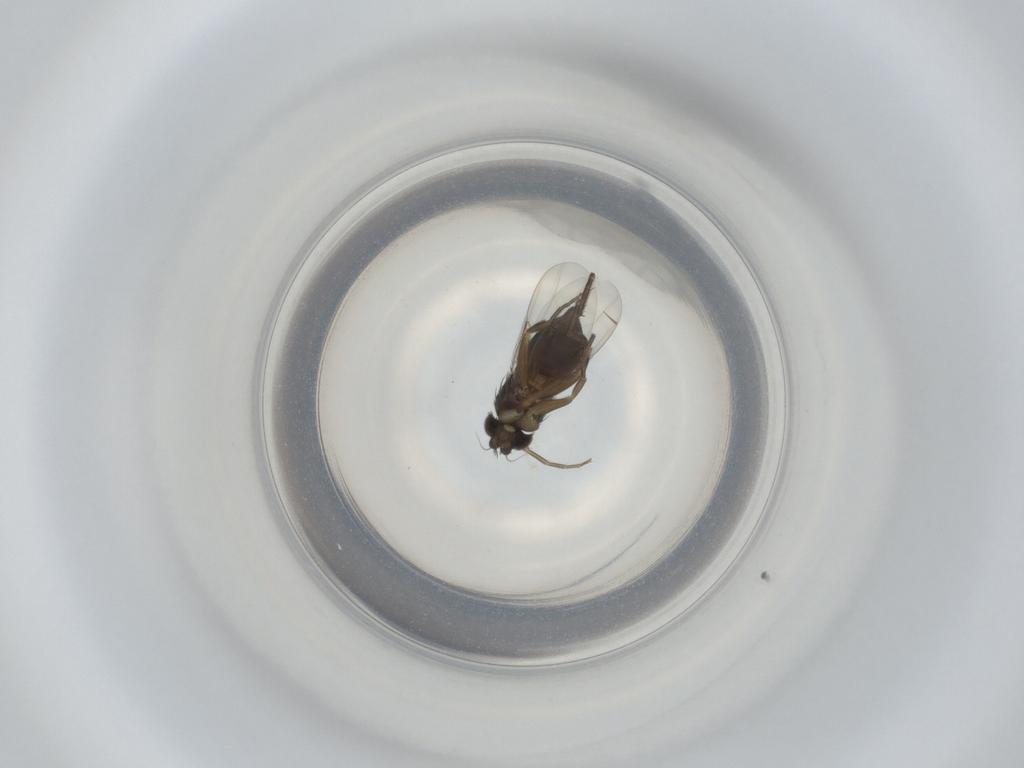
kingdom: Animalia
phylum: Arthropoda
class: Insecta
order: Diptera
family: Phoridae
